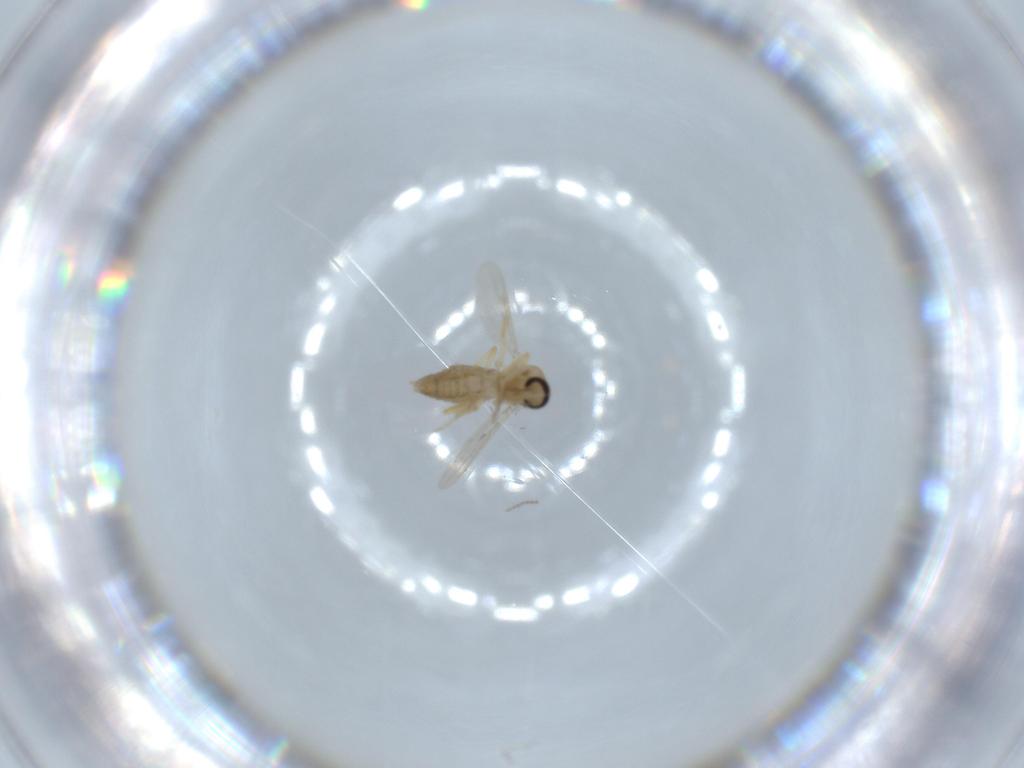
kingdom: Animalia
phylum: Arthropoda
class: Insecta
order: Diptera
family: Ceratopogonidae
